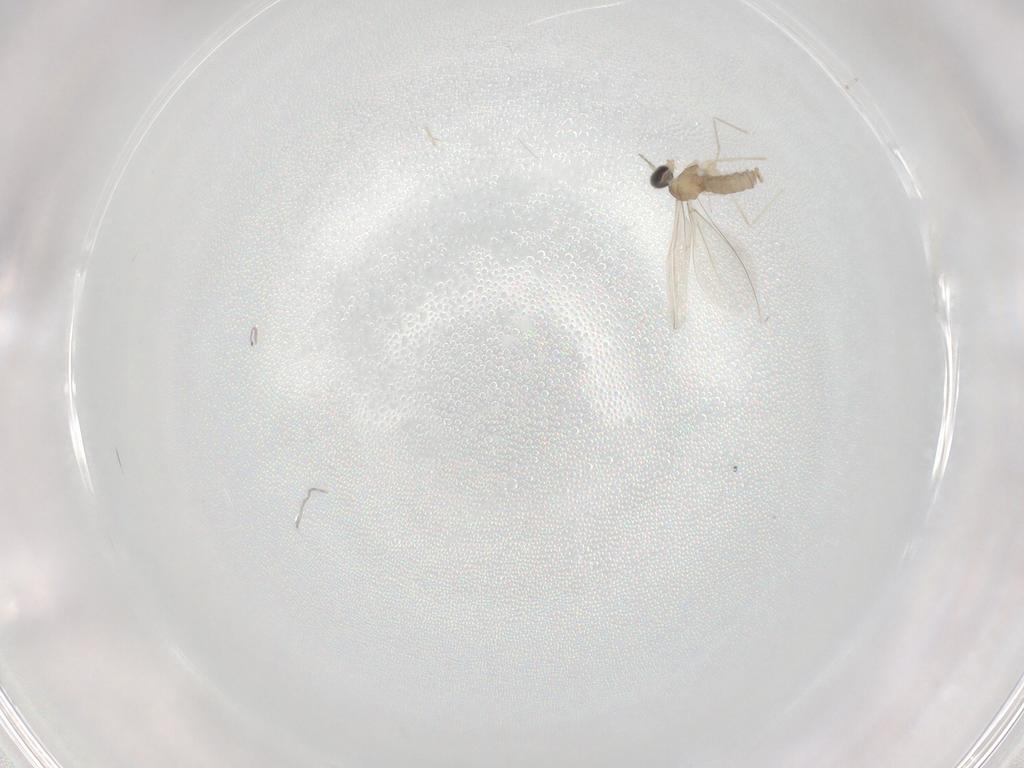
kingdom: Animalia
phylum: Arthropoda
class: Insecta
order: Diptera
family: Cecidomyiidae
